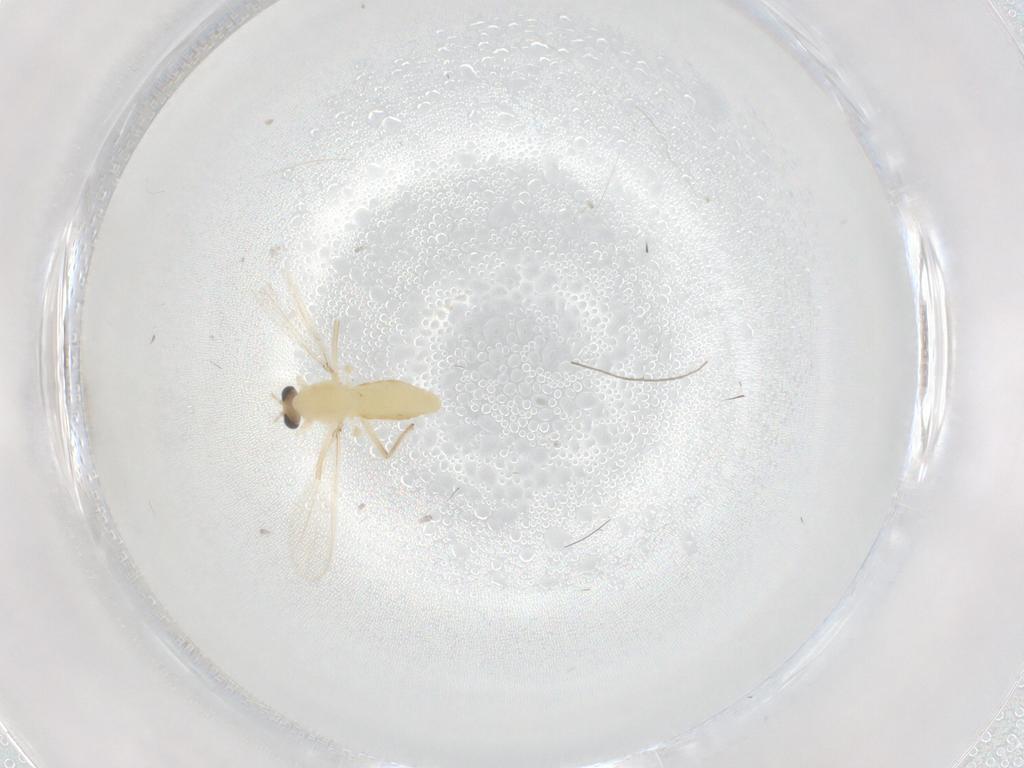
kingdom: Animalia
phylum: Arthropoda
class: Insecta
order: Diptera
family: Chironomidae
